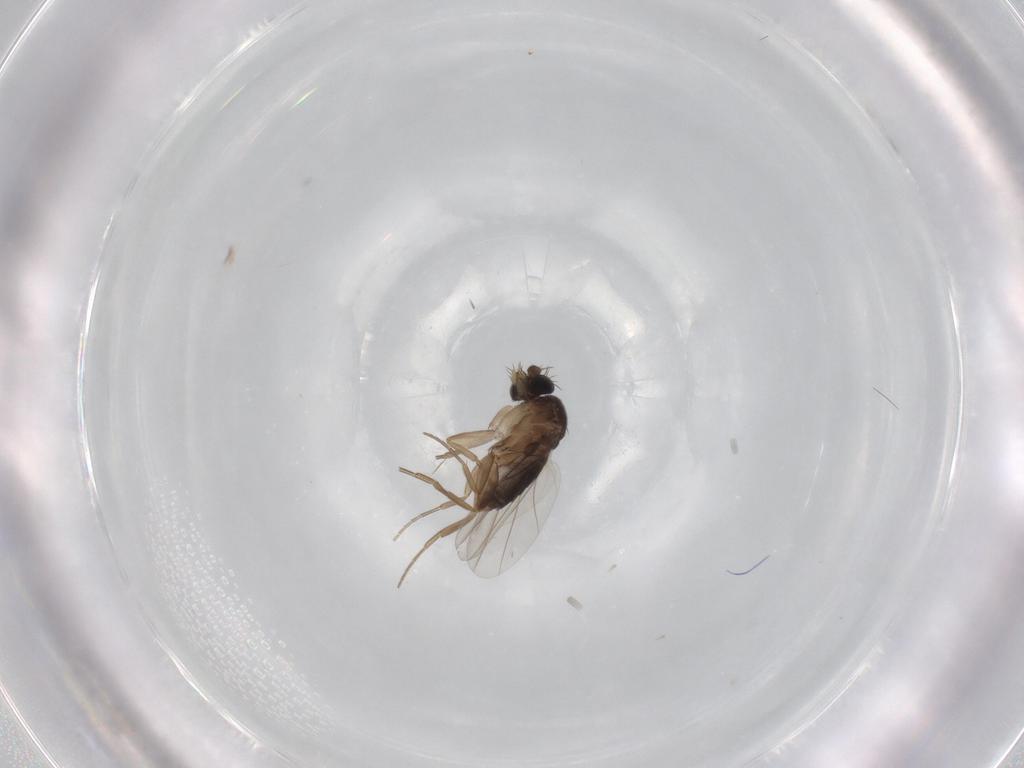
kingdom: Animalia
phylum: Arthropoda
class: Insecta
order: Diptera
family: Phoridae
